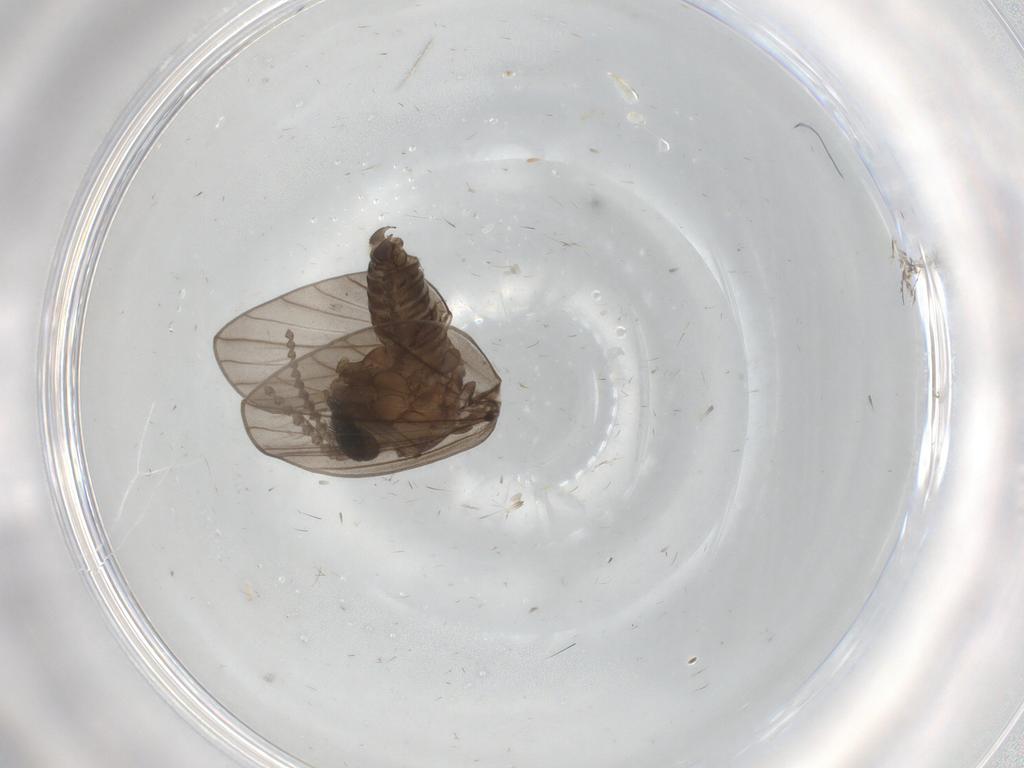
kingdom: Animalia
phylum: Arthropoda
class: Insecta
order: Diptera
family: Chironomidae
